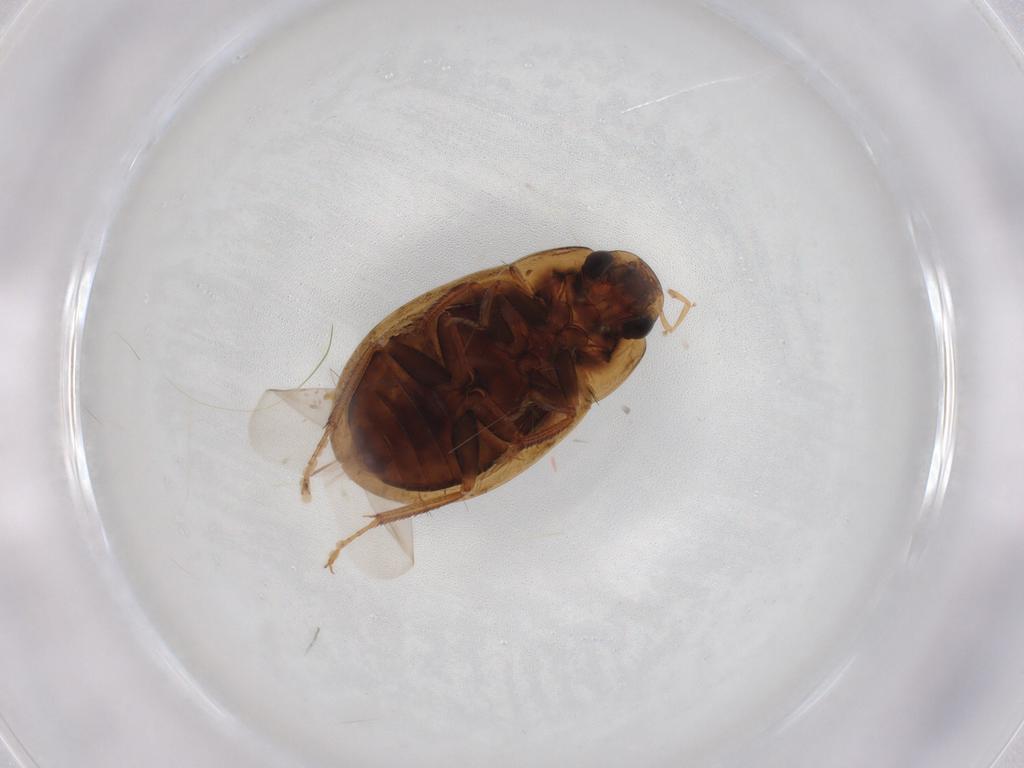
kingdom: Animalia
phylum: Arthropoda
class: Insecta
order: Coleoptera
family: Hydrophilidae
